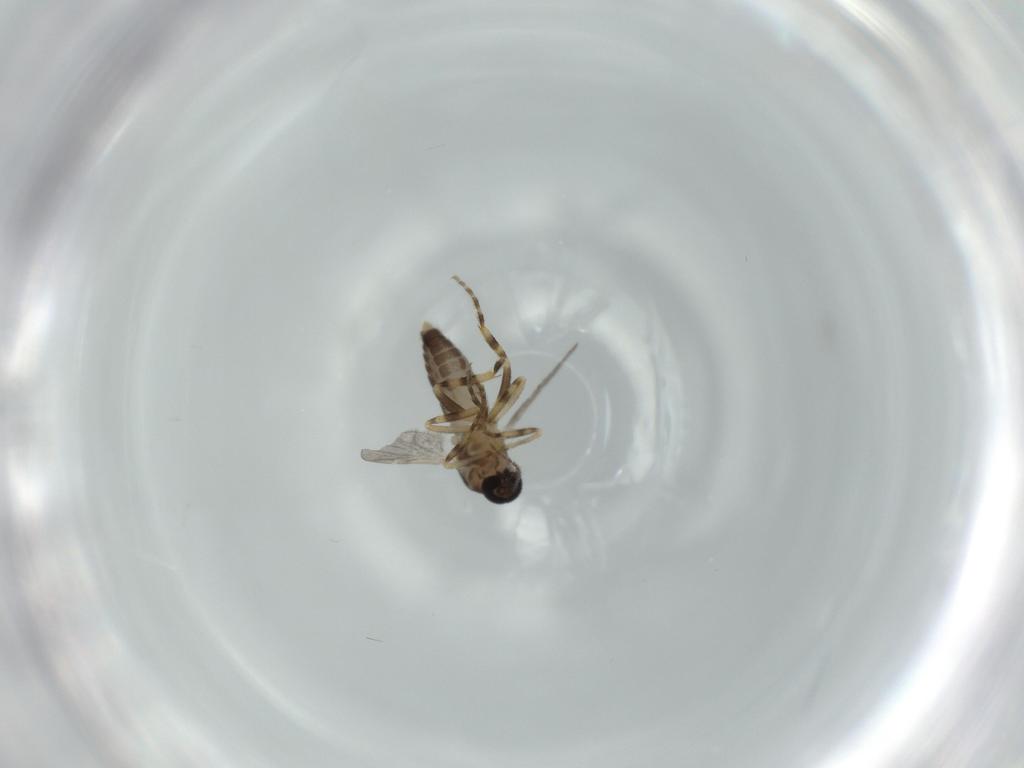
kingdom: Animalia
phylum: Arthropoda
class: Insecta
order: Diptera
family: Ceratopogonidae
